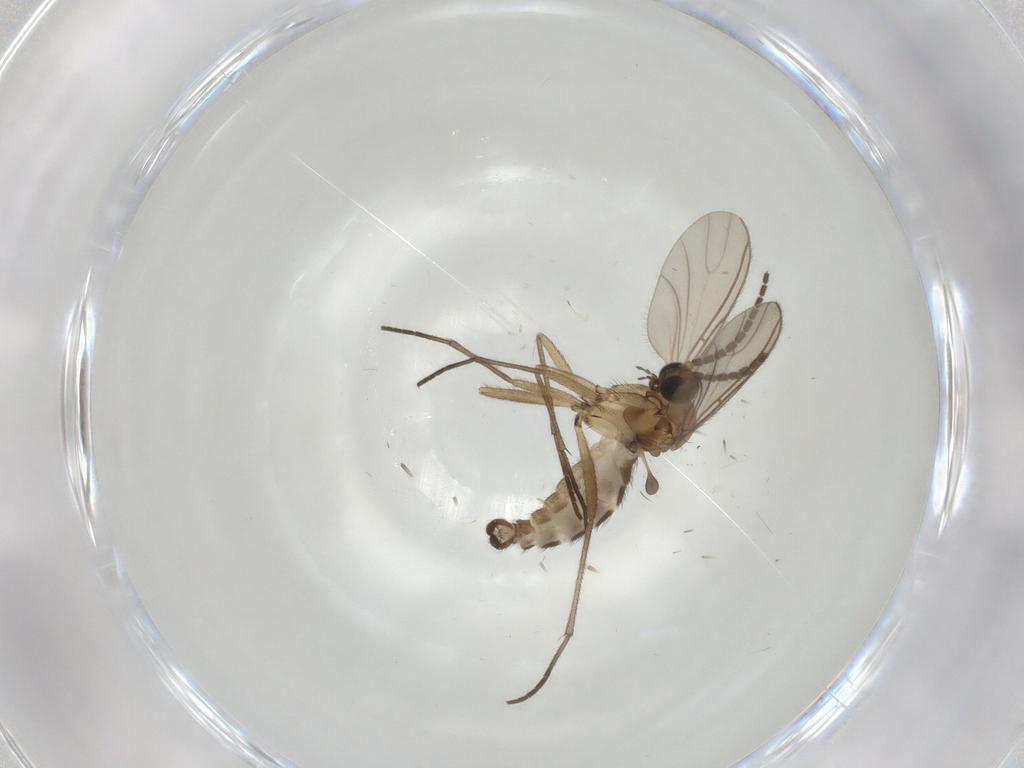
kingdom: Animalia
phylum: Arthropoda
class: Insecta
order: Diptera
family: Sciaridae
